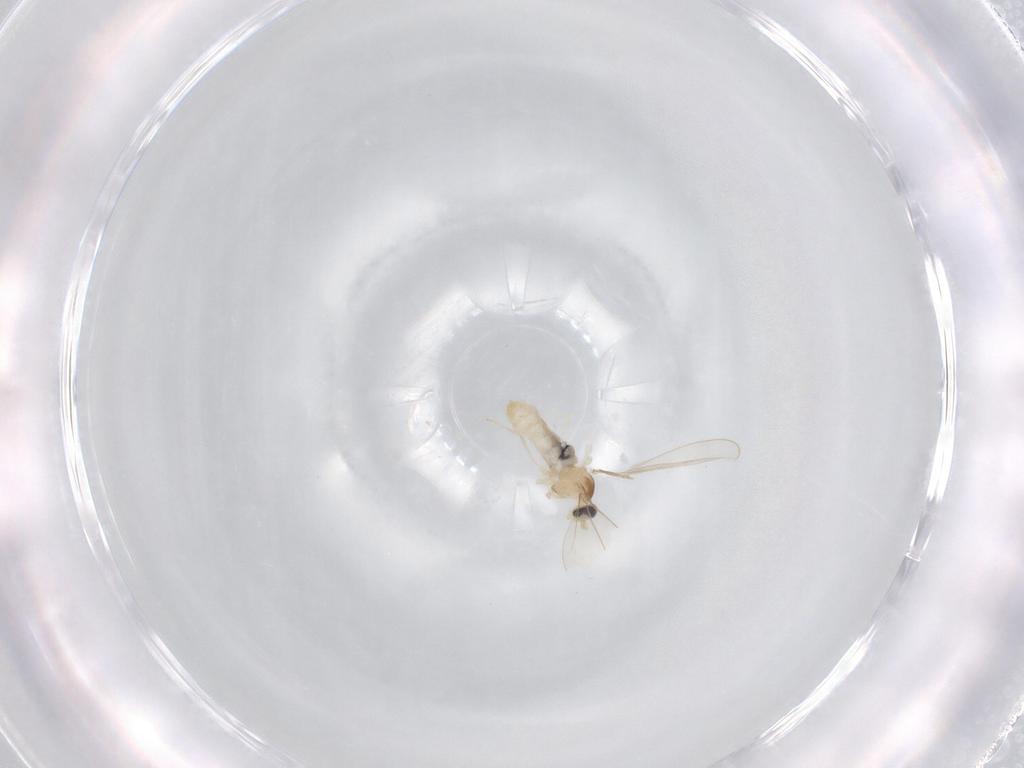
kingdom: Animalia
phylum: Arthropoda
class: Insecta
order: Diptera
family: Cecidomyiidae
